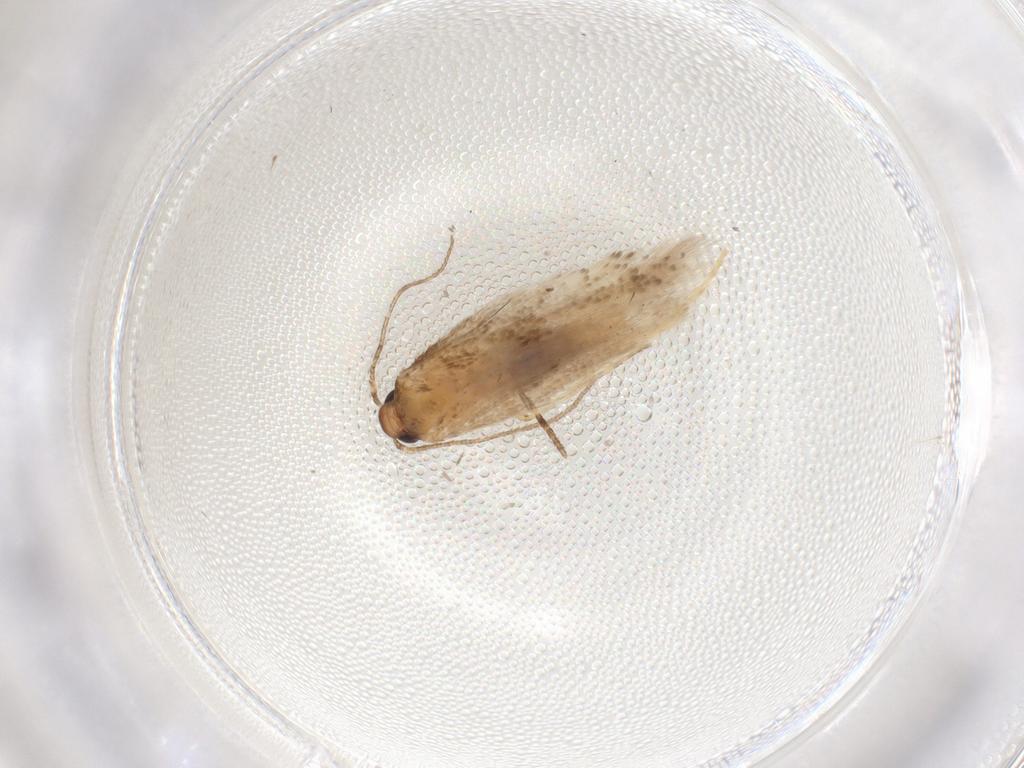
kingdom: Animalia
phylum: Arthropoda
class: Insecta
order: Lepidoptera
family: Gelechiidae
